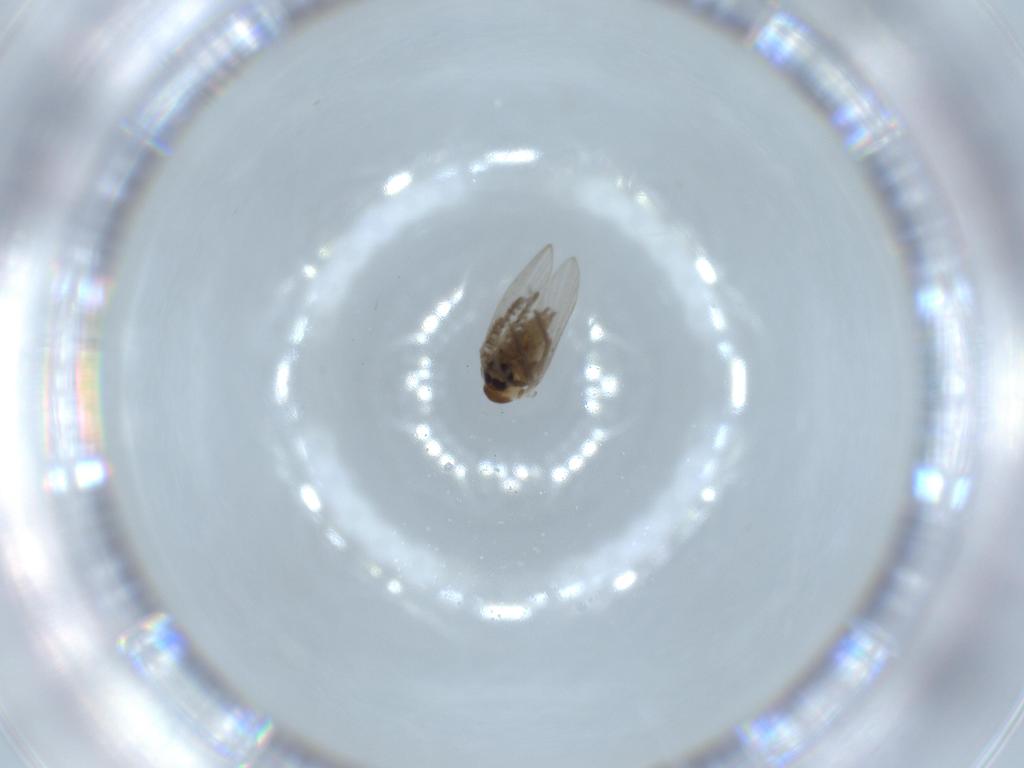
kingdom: Animalia
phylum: Arthropoda
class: Insecta
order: Diptera
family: Psychodidae
